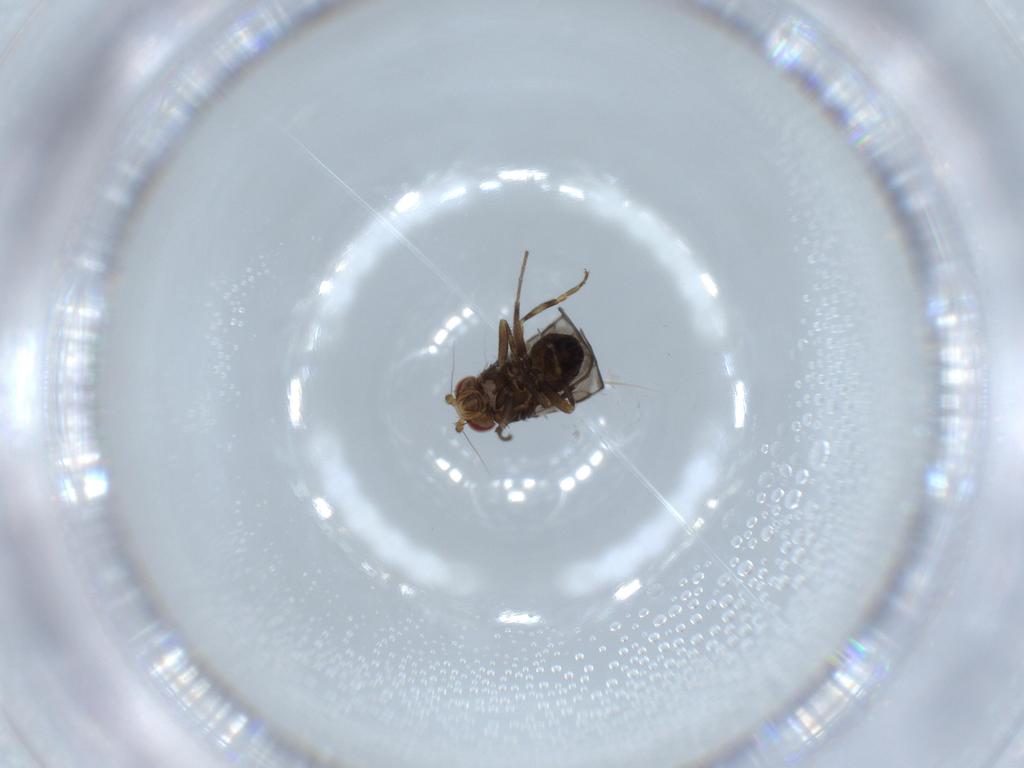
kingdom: Animalia
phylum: Arthropoda
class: Insecta
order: Diptera
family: Sphaeroceridae
